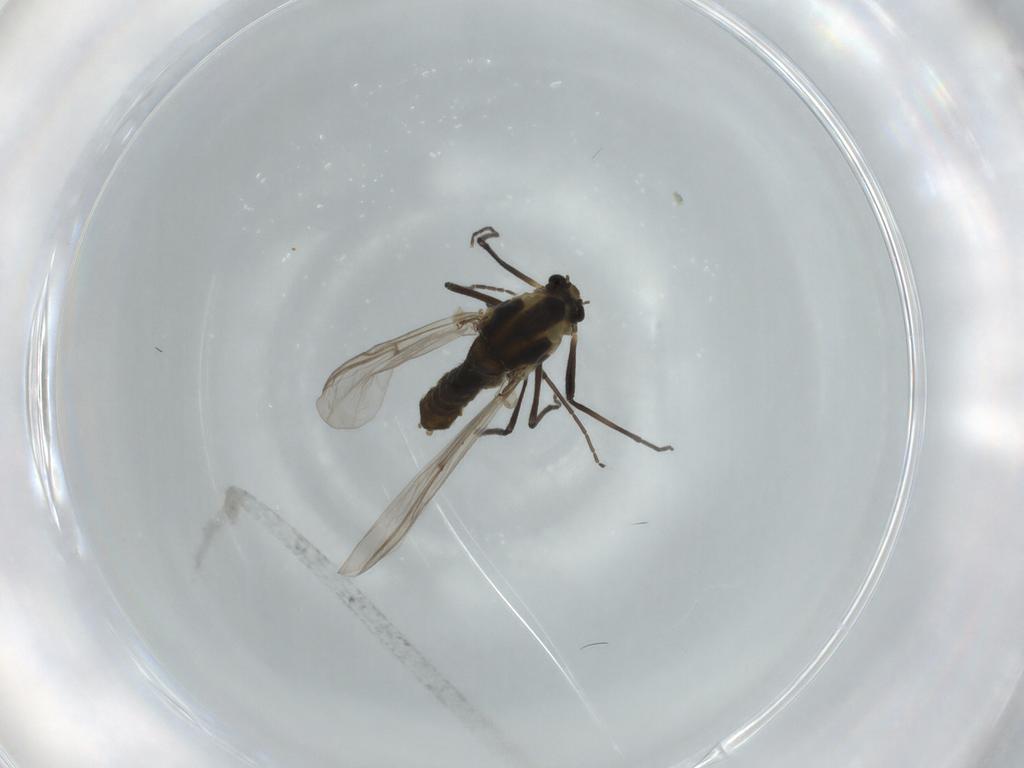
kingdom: Animalia
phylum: Arthropoda
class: Insecta
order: Diptera
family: Chironomidae
